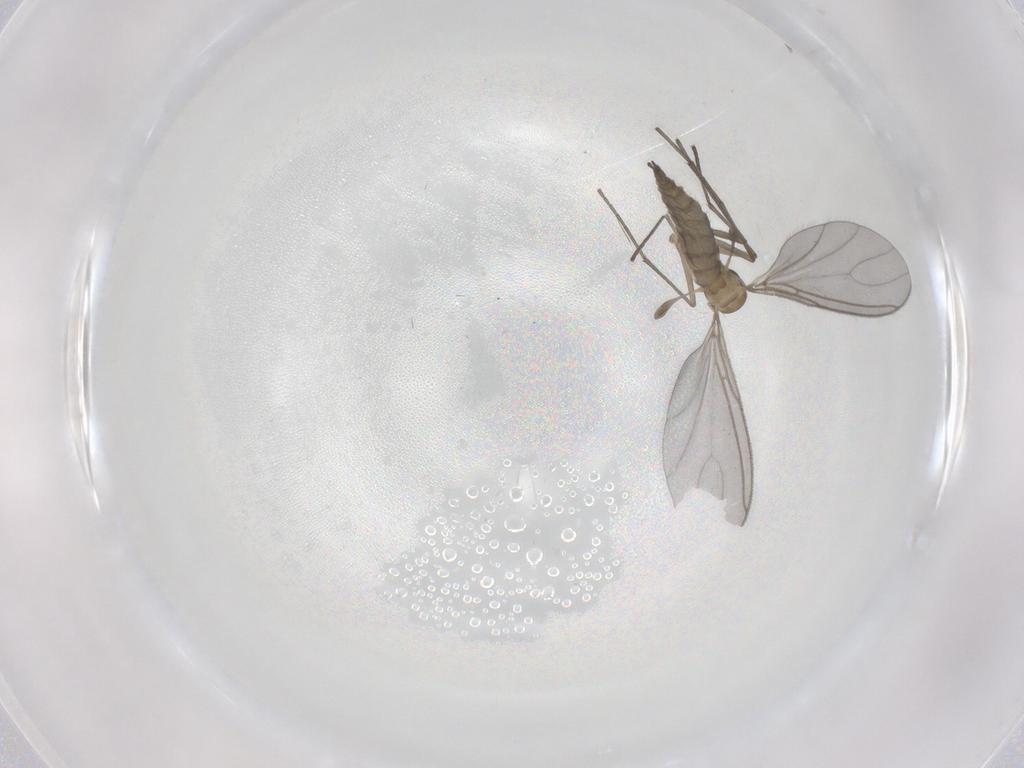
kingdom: Animalia
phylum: Arthropoda
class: Insecta
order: Diptera
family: Sciaridae
